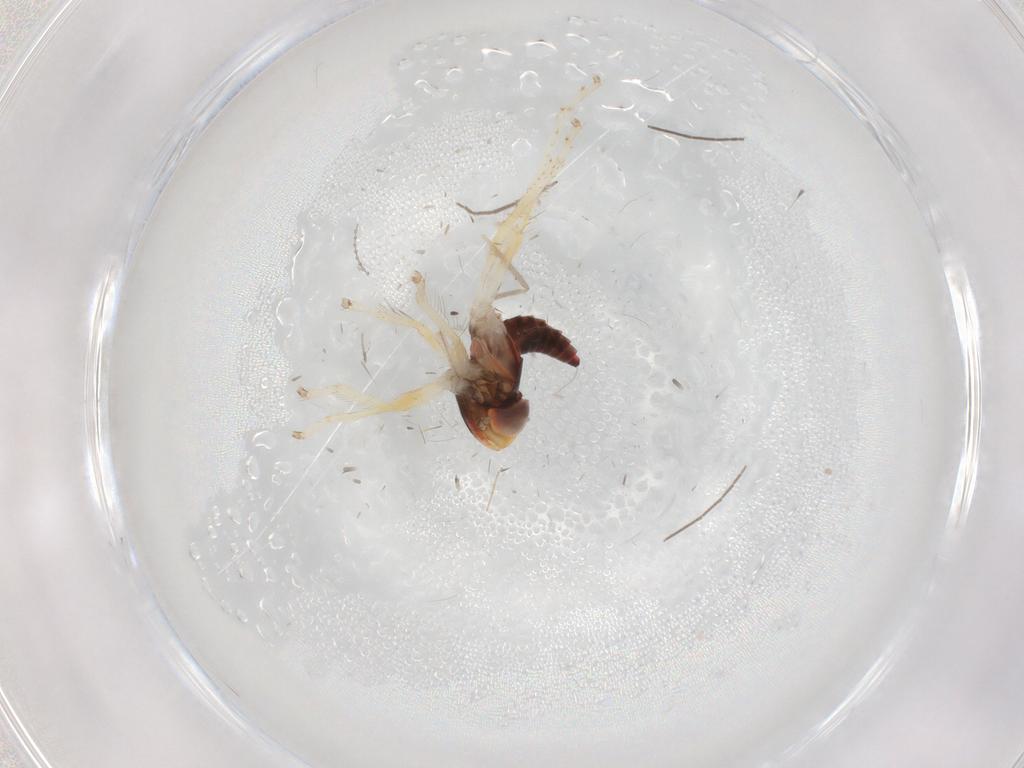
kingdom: Animalia
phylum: Arthropoda
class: Insecta
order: Hemiptera
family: Cicadellidae
